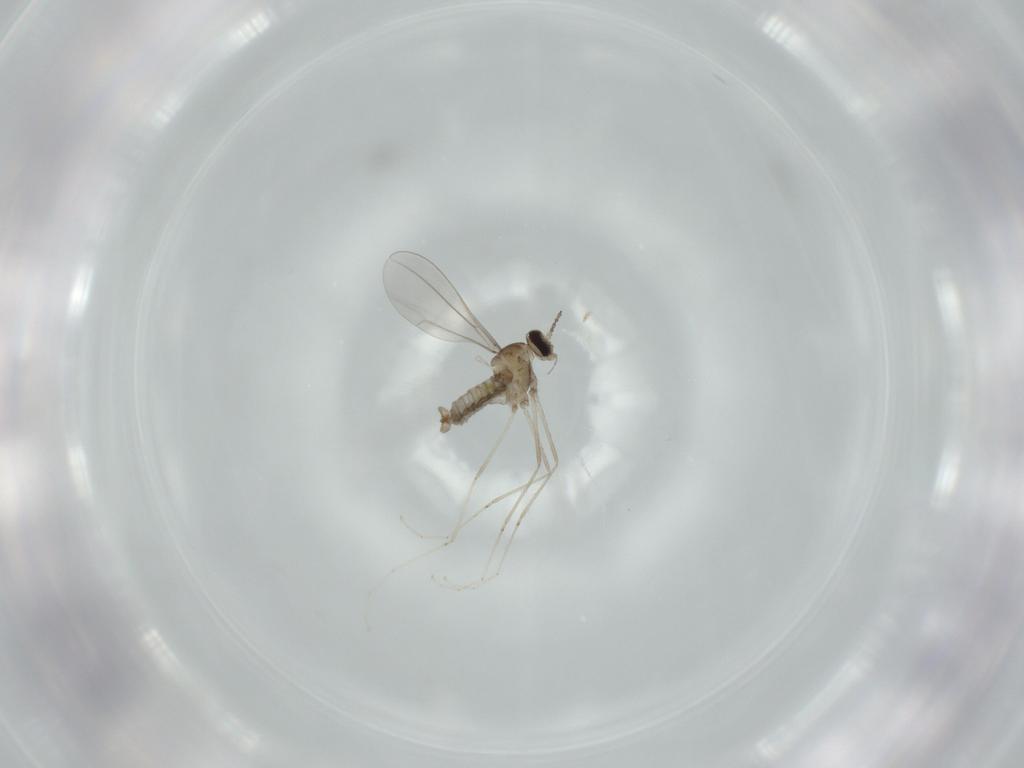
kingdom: Animalia
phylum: Arthropoda
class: Insecta
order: Diptera
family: Cecidomyiidae
